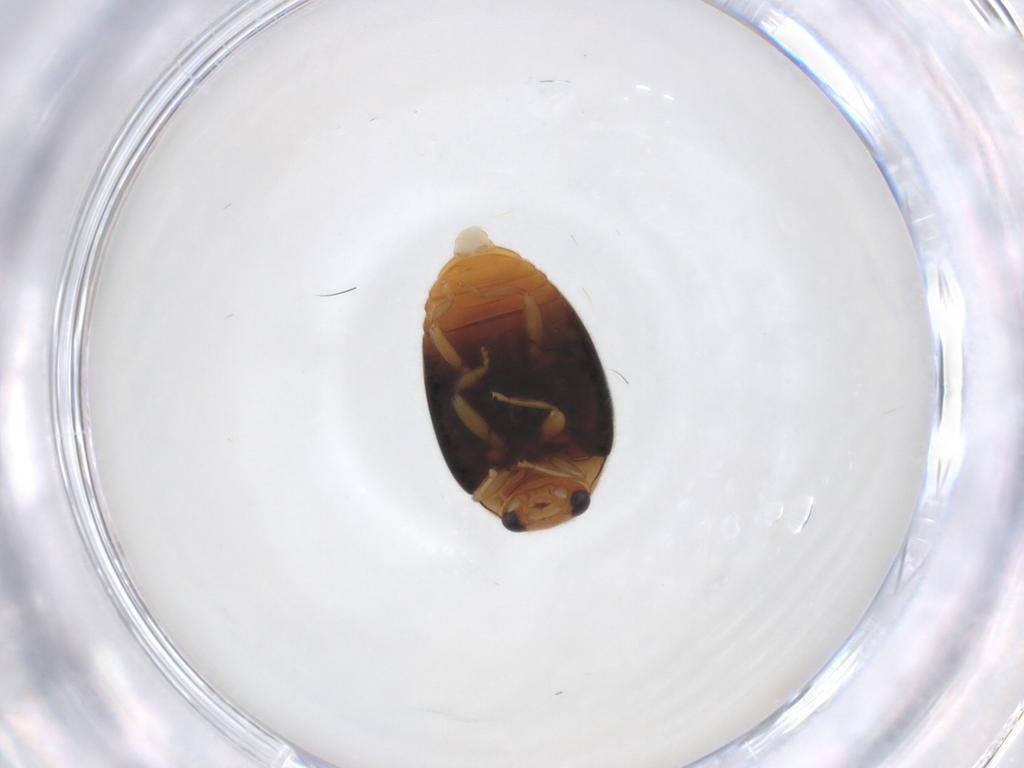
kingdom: Animalia
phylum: Arthropoda
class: Insecta
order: Coleoptera
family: Coccinellidae
